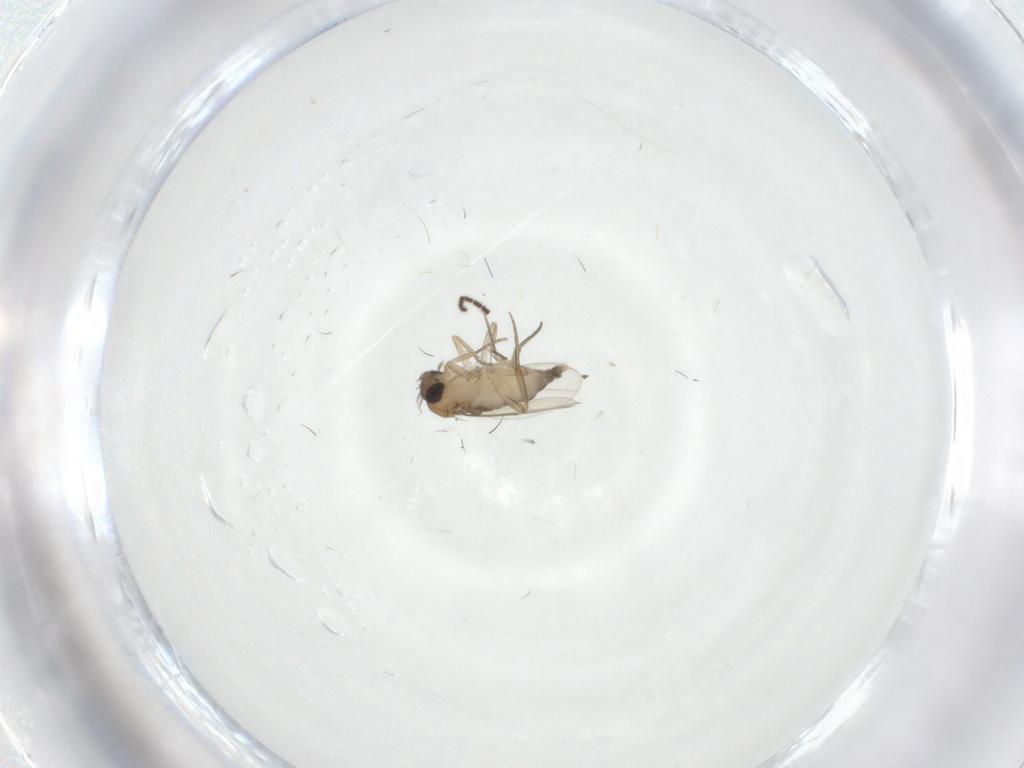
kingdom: Animalia
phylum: Arthropoda
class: Insecta
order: Diptera
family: Phoridae
